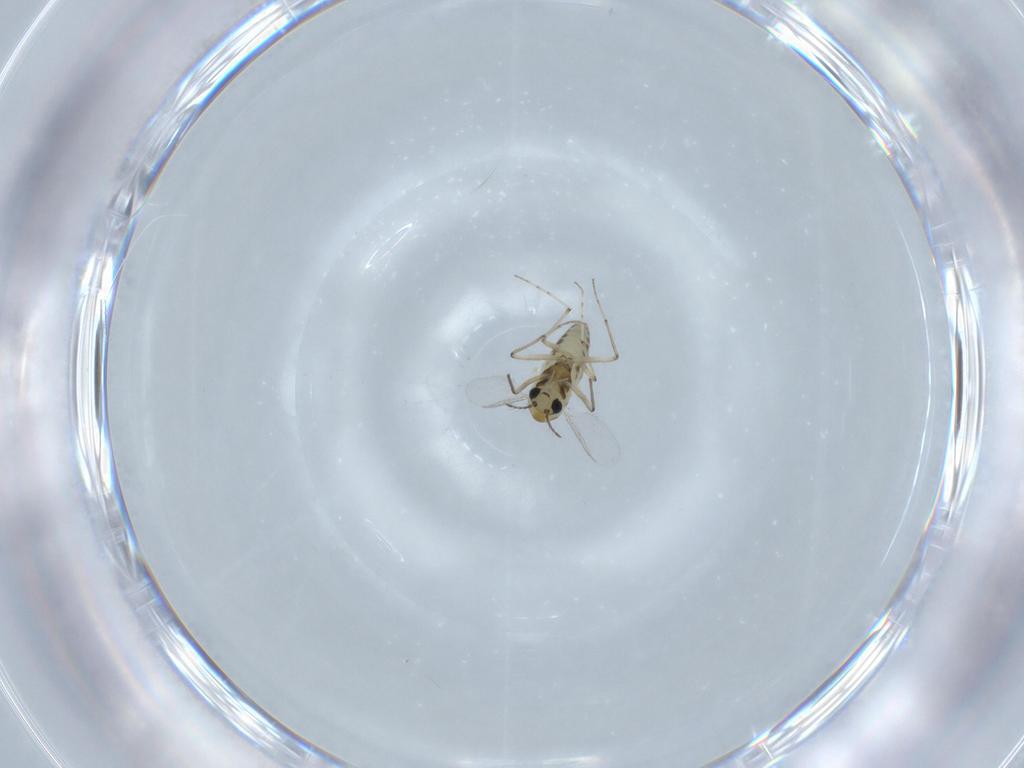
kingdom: Animalia
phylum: Arthropoda
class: Insecta
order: Diptera
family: Chironomidae
